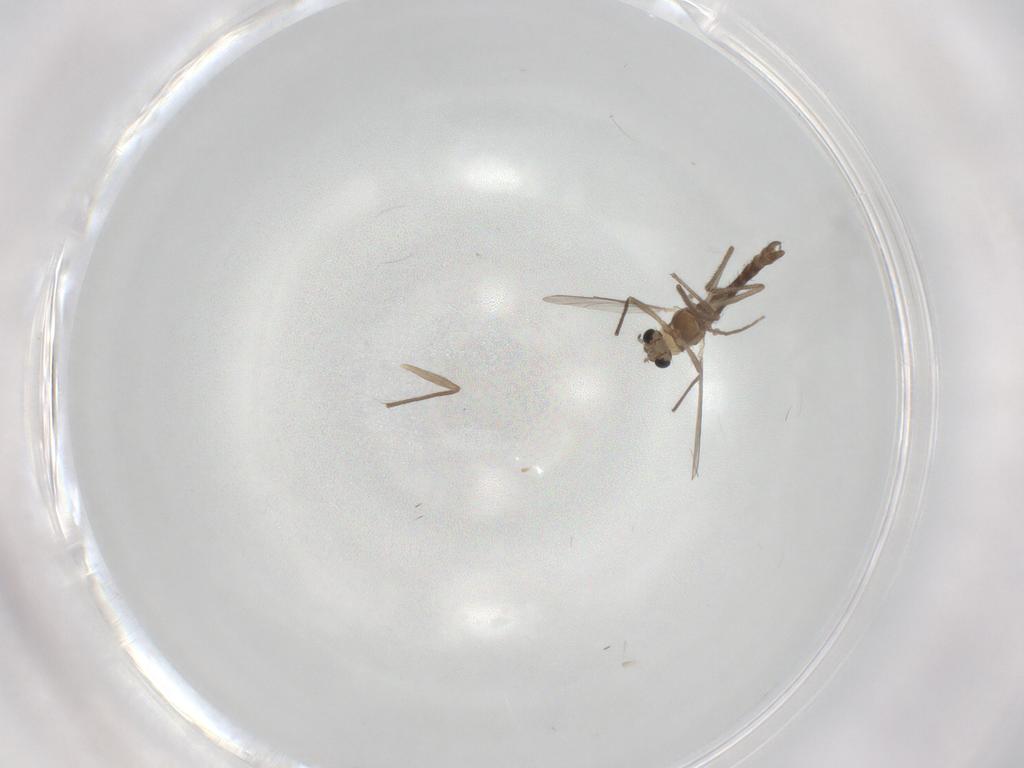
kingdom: Animalia
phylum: Arthropoda
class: Insecta
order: Diptera
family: Chironomidae
